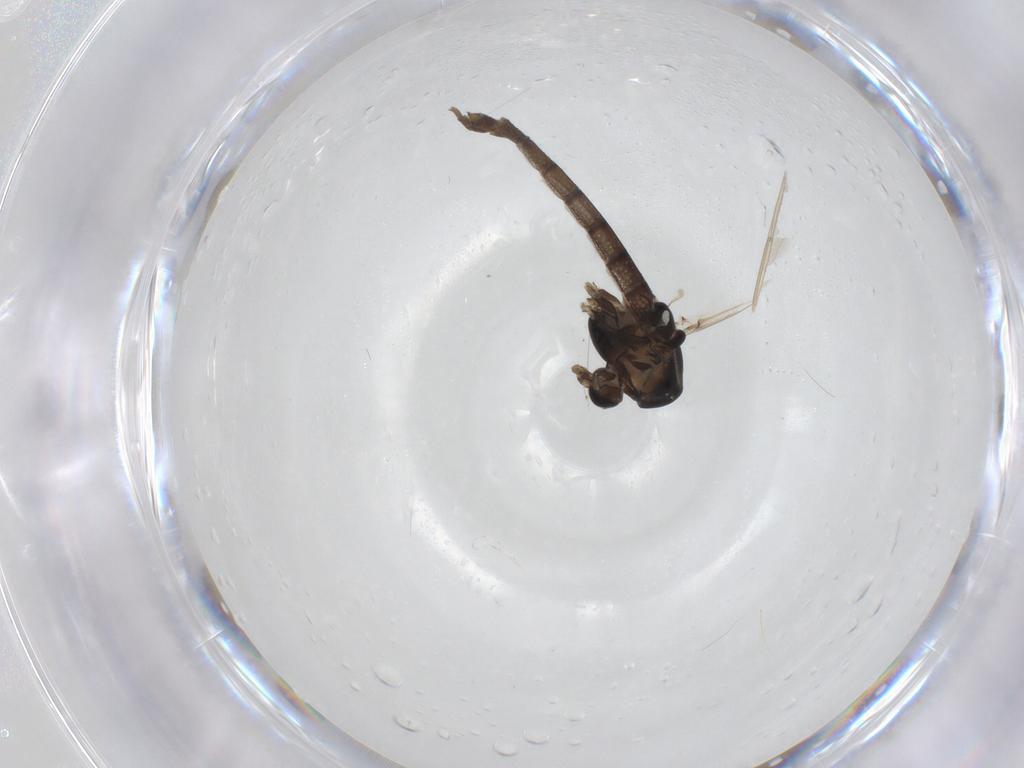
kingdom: Animalia
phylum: Arthropoda
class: Insecta
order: Diptera
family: Chironomidae
